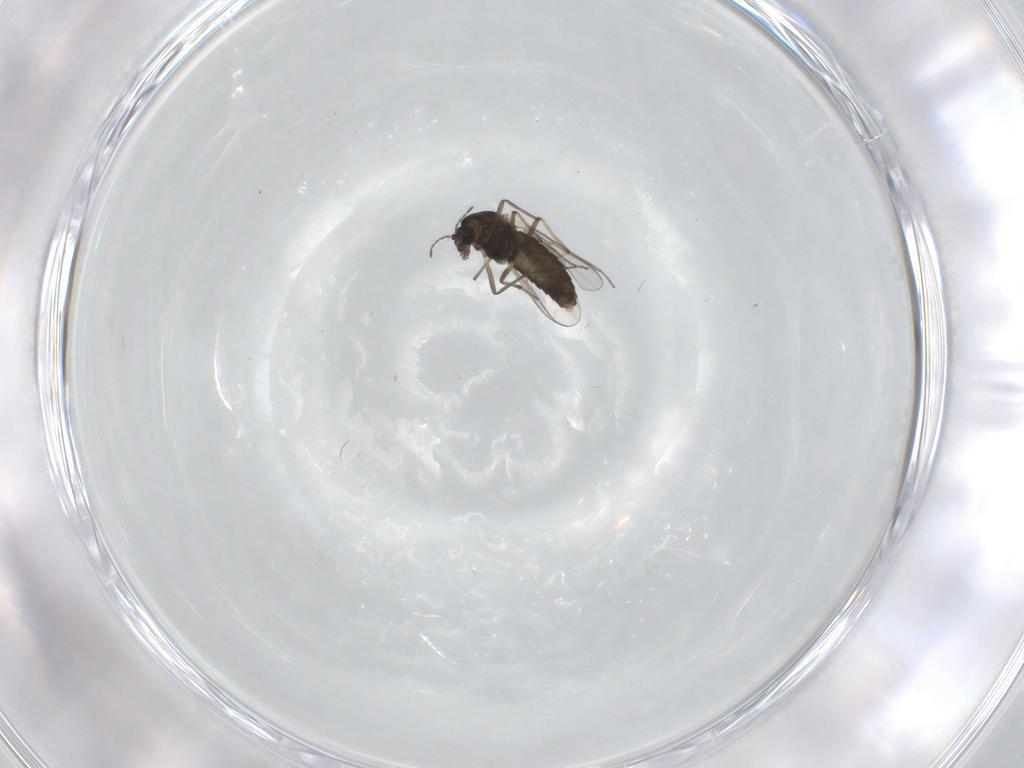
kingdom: Animalia
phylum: Arthropoda
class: Insecta
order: Diptera
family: Chironomidae
